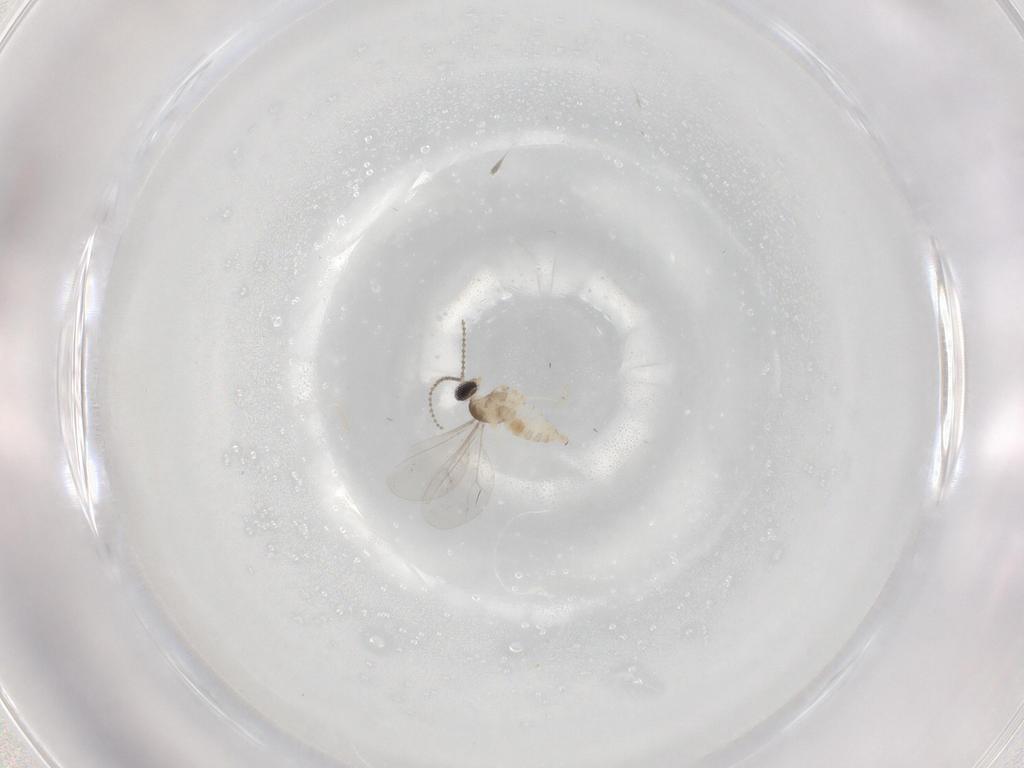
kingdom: Animalia
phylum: Arthropoda
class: Insecta
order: Diptera
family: Cecidomyiidae
